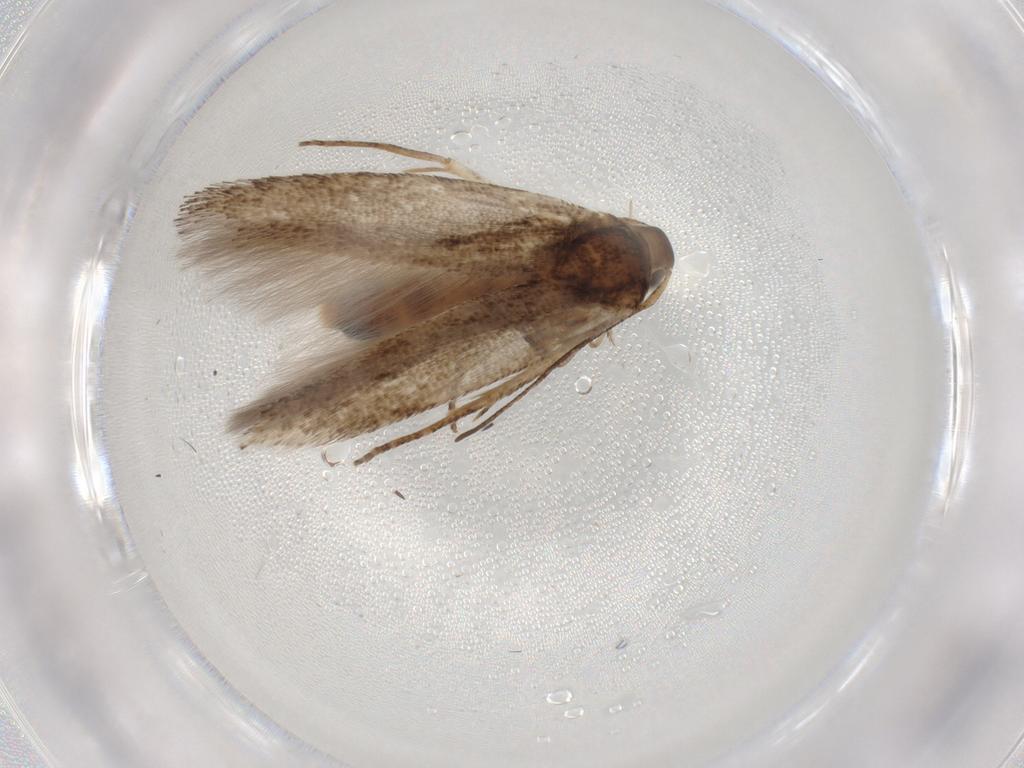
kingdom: Animalia
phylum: Arthropoda
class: Insecta
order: Lepidoptera
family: Cosmopterigidae
